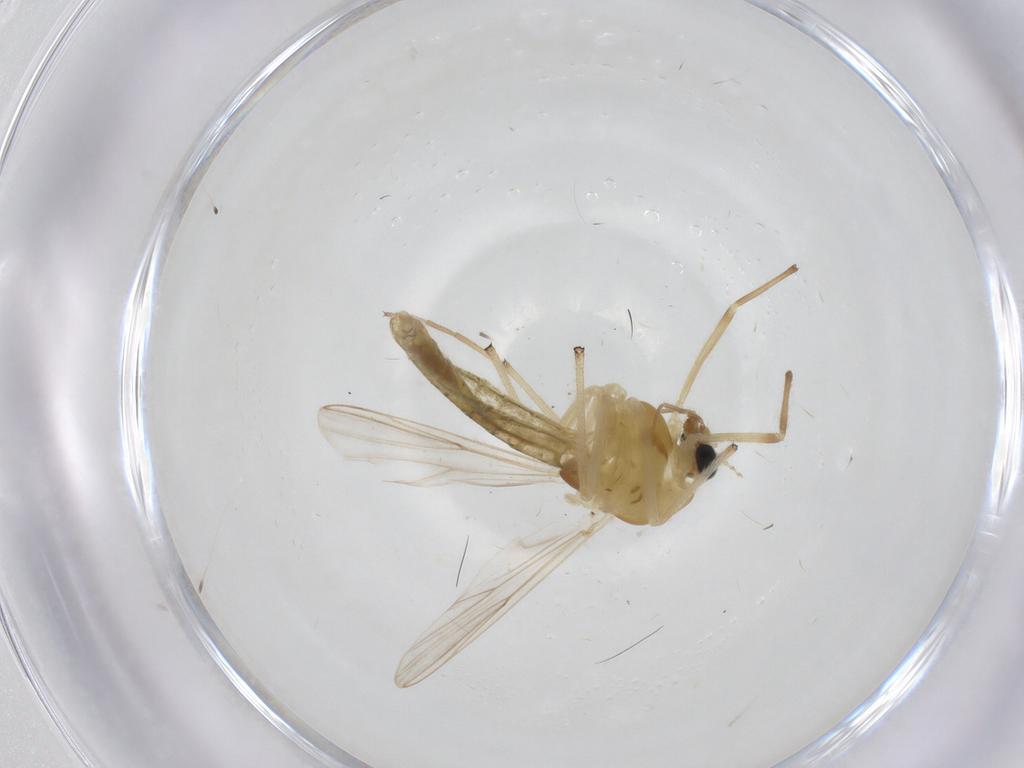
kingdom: Animalia
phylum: Arthropoda
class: Insecta
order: Diptera
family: Chironomidae
